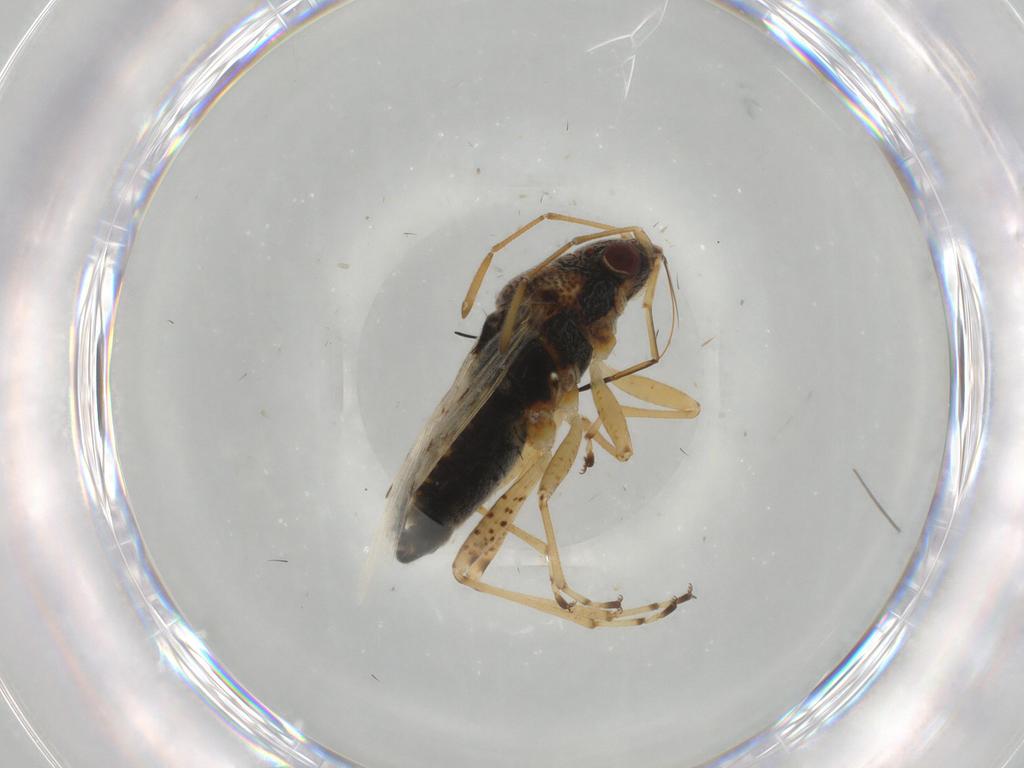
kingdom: Animalia
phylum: Arthropoda
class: Insecta
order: Hemiptera
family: Lygaeidae
